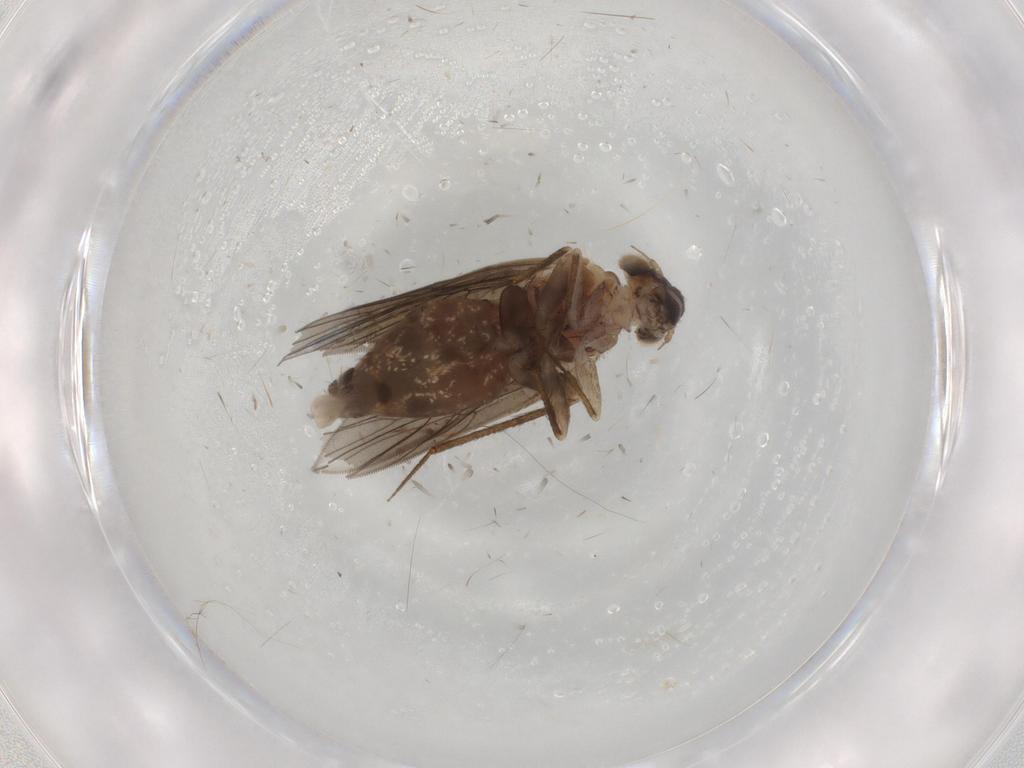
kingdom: Animalia
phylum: Arthropoda
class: Insecta
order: Psocodea
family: Lepidopsocidae
